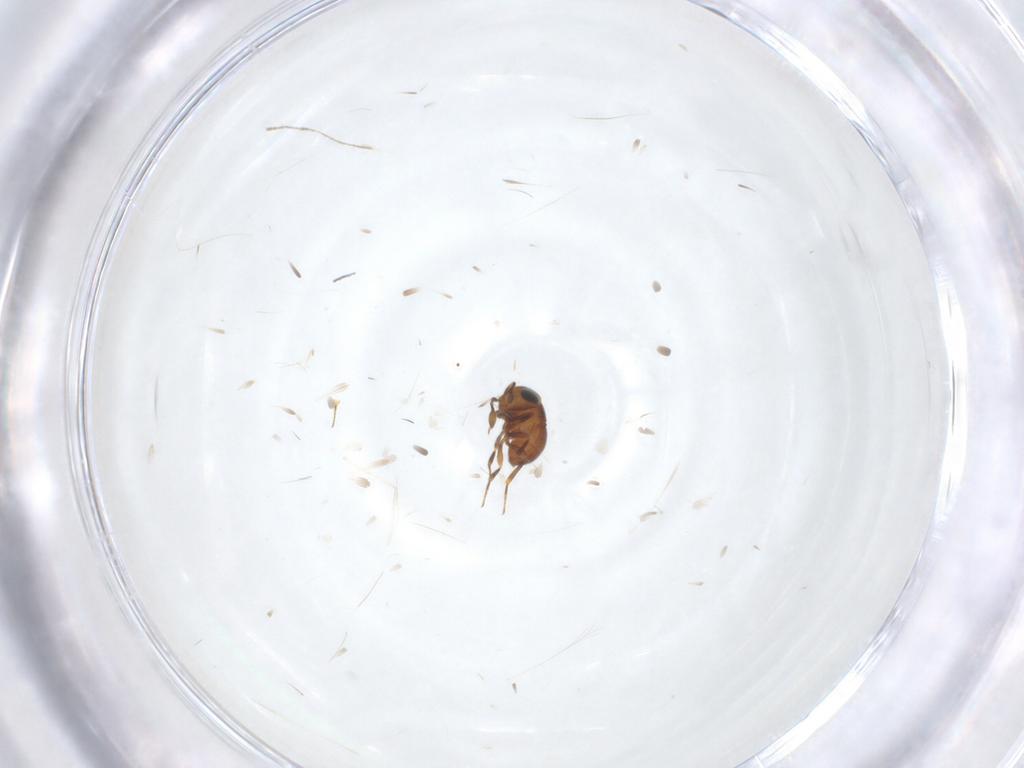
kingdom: Animalia
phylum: Arthropoda
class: Insecta
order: Hymenoptera
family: Scelionidae
